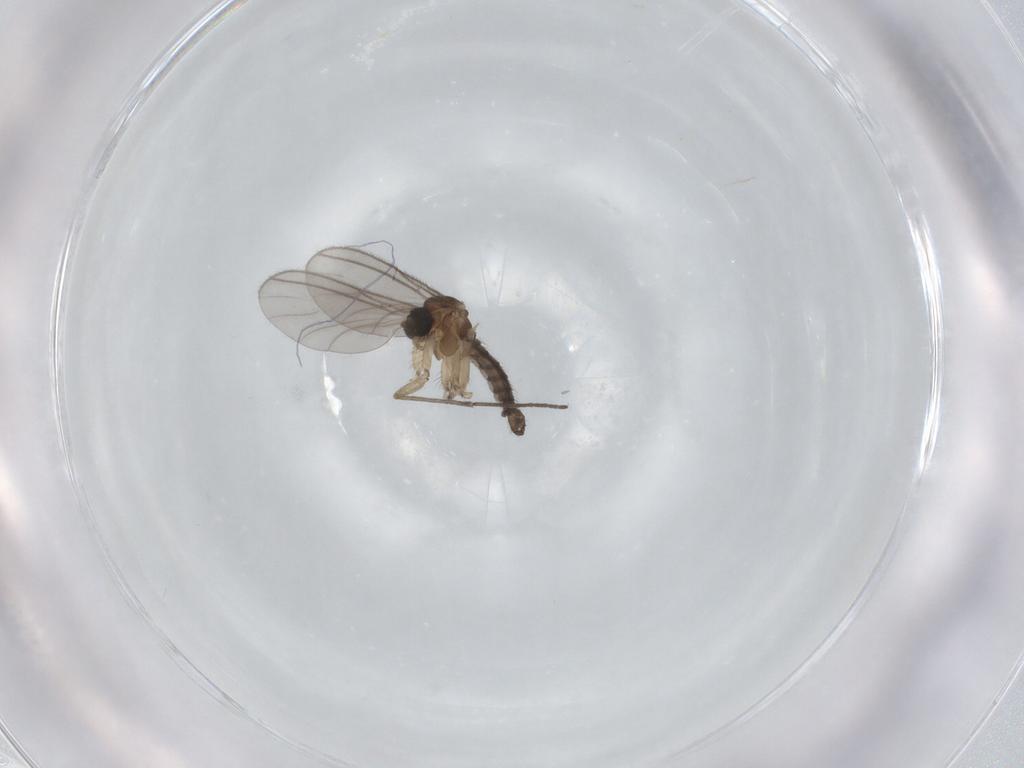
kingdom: Animalia
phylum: Arthropoda
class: Insecta
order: Diptera
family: Sciaridae
